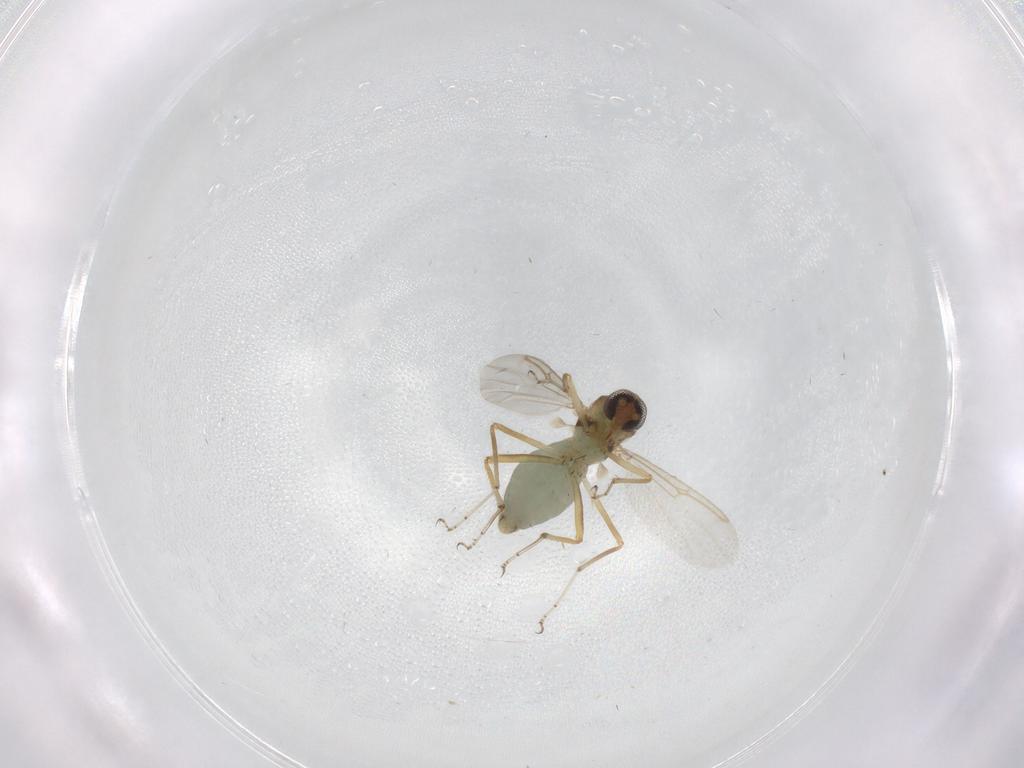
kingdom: Animalia
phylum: Arthropoda
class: Insecta
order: Diptera
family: Ceratopogonidae
